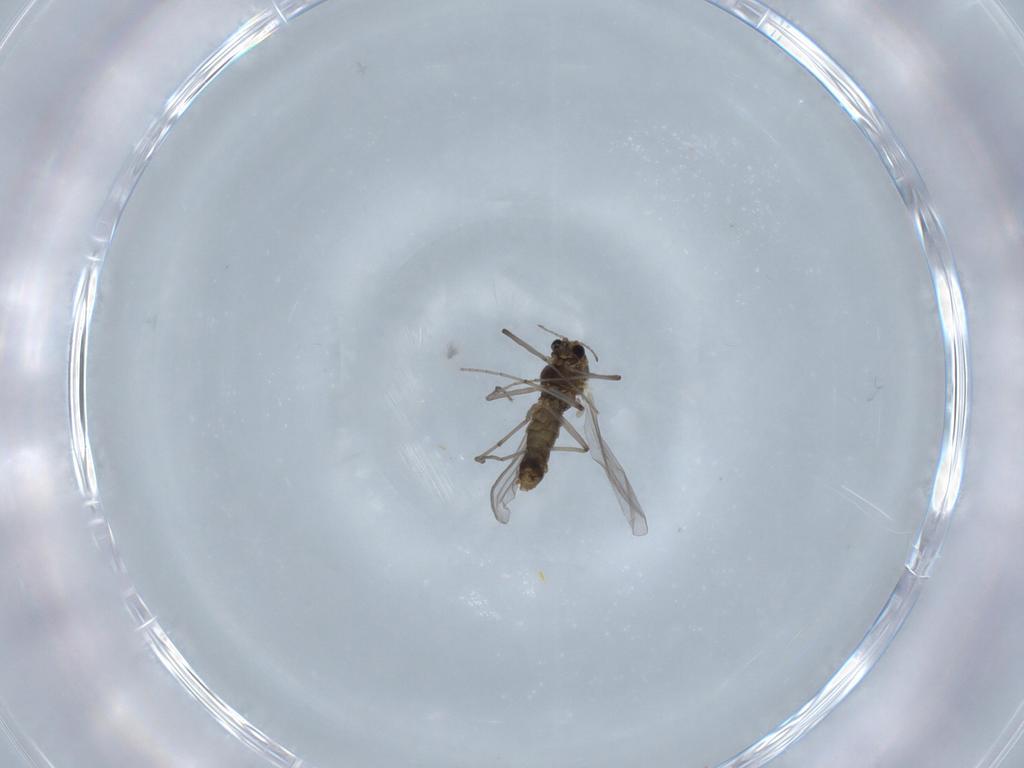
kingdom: Animalia
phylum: Arthropoda
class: Insecta
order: Diptera
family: Chironomidae
